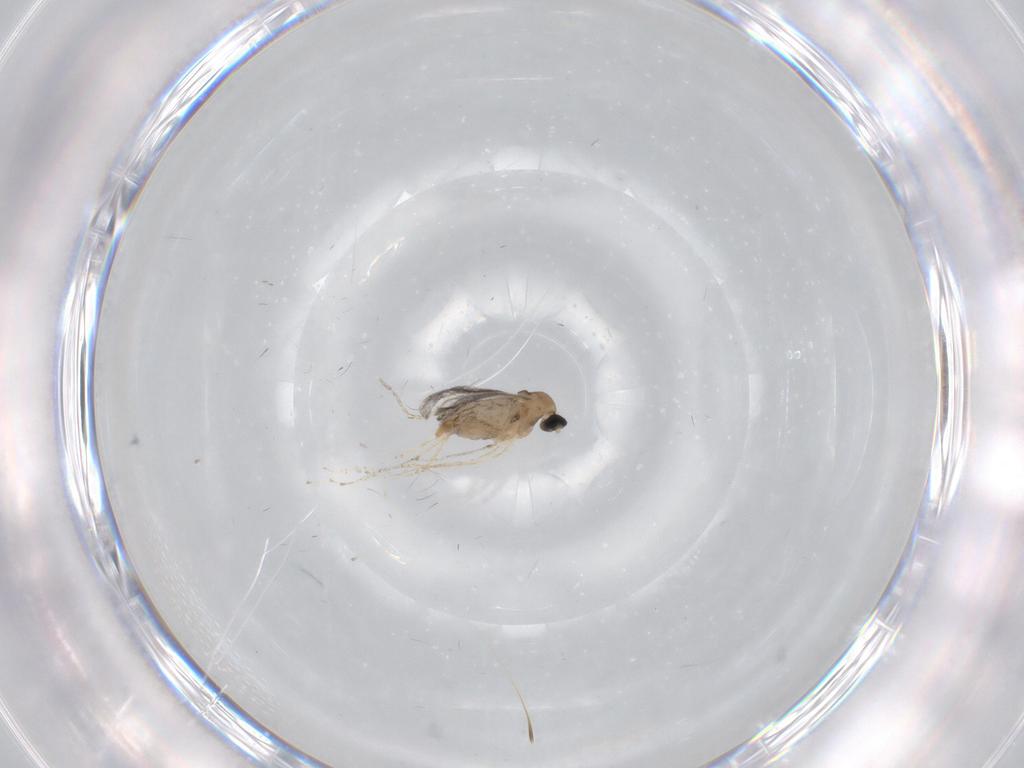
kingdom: Animalia
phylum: Arthropoda
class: Insecta
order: Diptera
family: Cecidomyiidae
